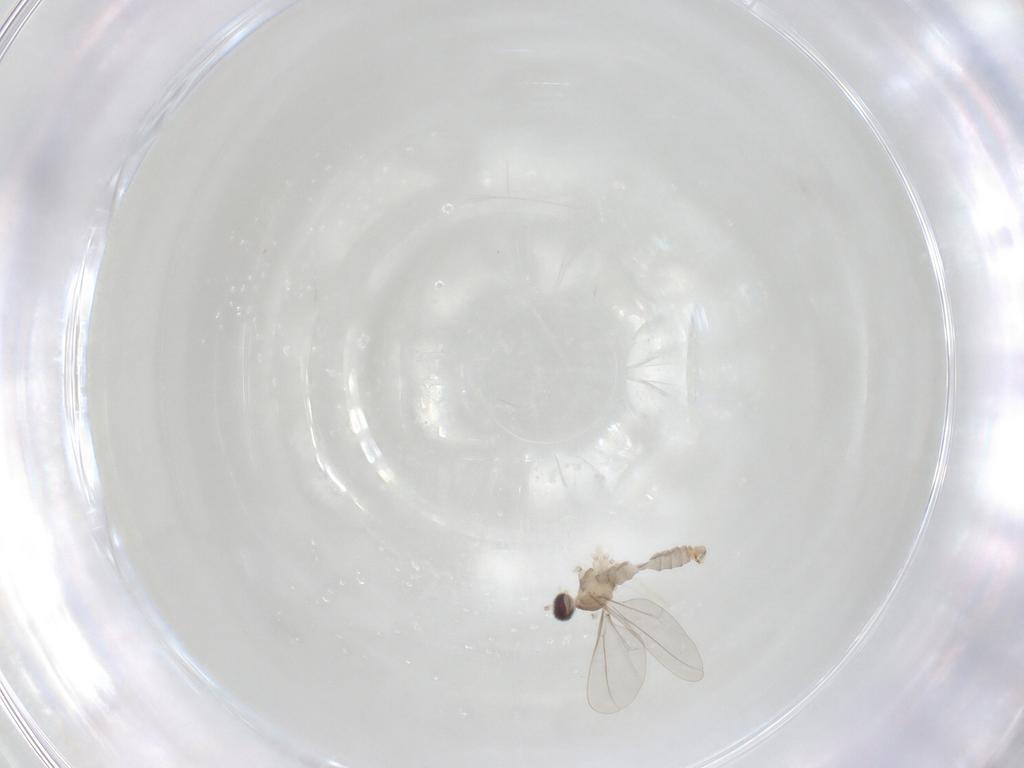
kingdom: Animalia
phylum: Arthropoda
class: Insecta
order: Diptera
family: Cecidomyiidae
